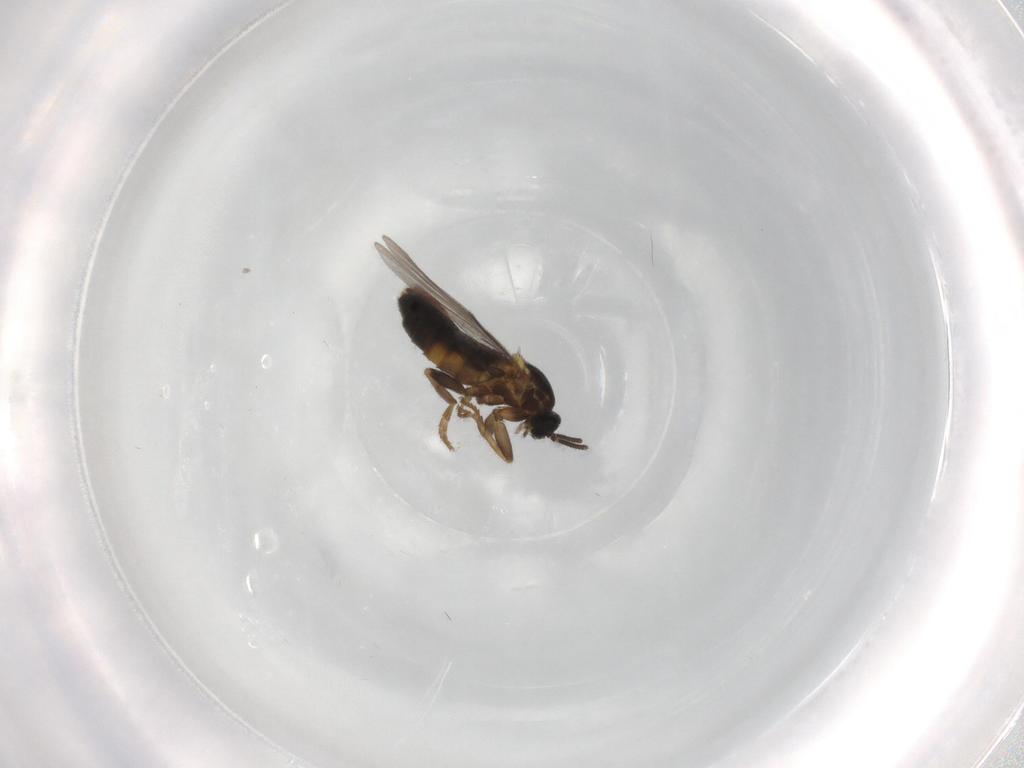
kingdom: Animalia
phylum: Arthropoda
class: Insecta
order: Diptera
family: Scatopsidae
